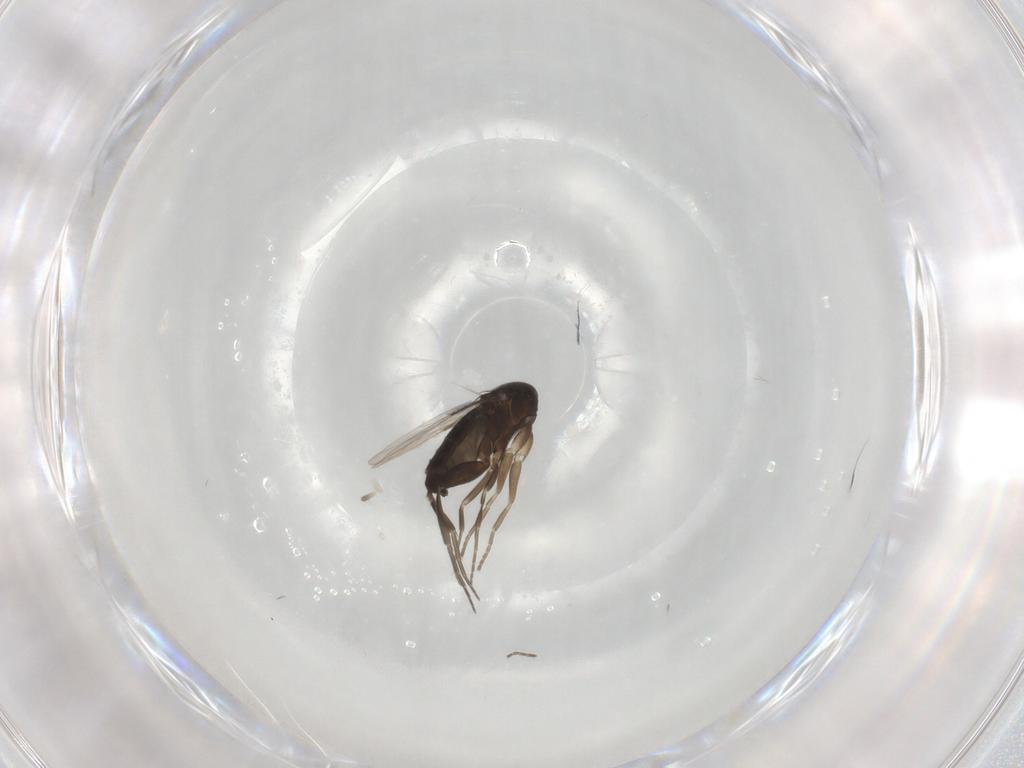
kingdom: Animalia
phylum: Arthropoda
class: Insecta
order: Diptera
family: Phoridae
